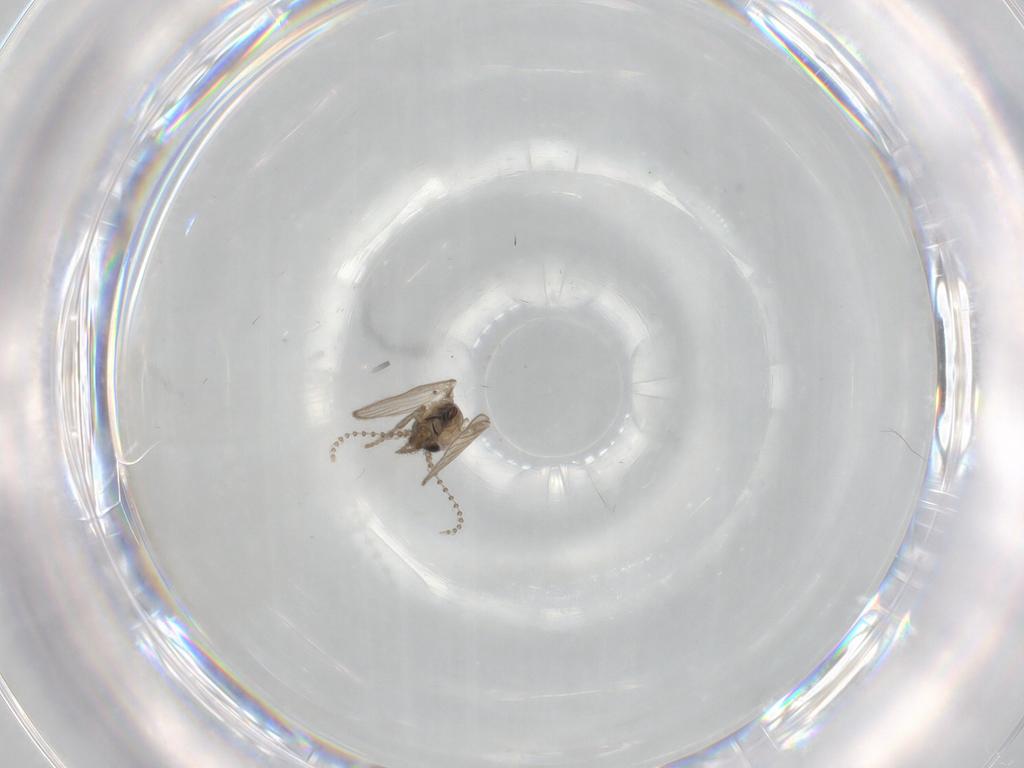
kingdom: Animalia
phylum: Arthropoda
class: Insecta
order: Diptera
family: Psychodidae
